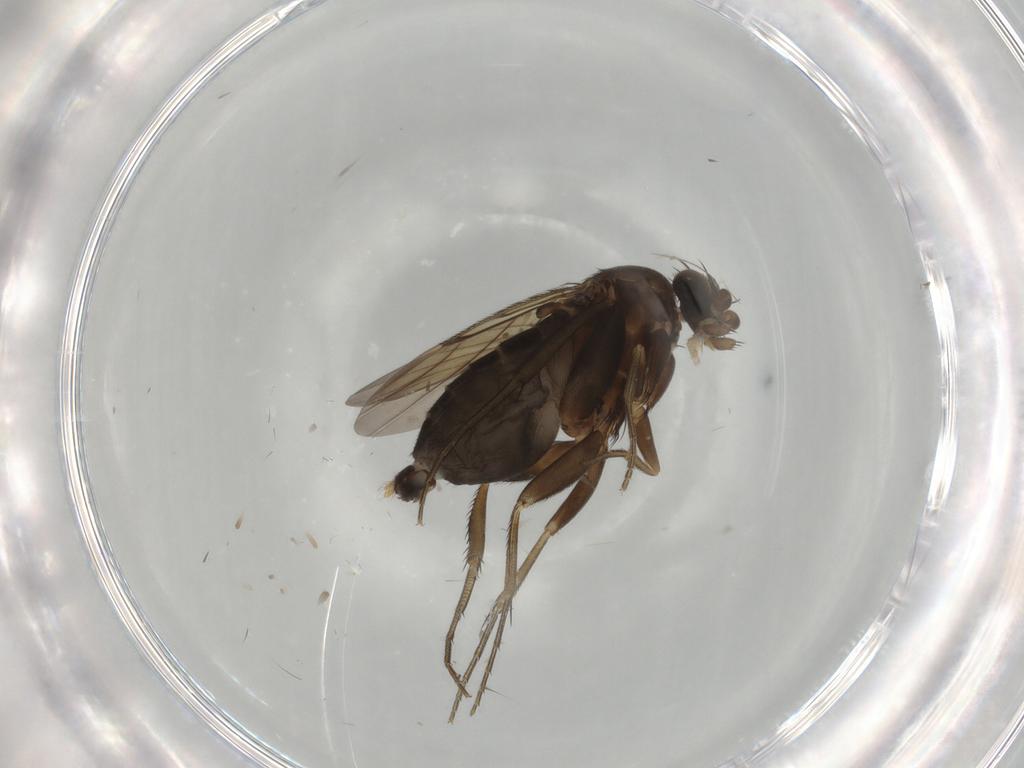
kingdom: Animalia
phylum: Arthropoda
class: Insecta
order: Diptera
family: Phoridae
